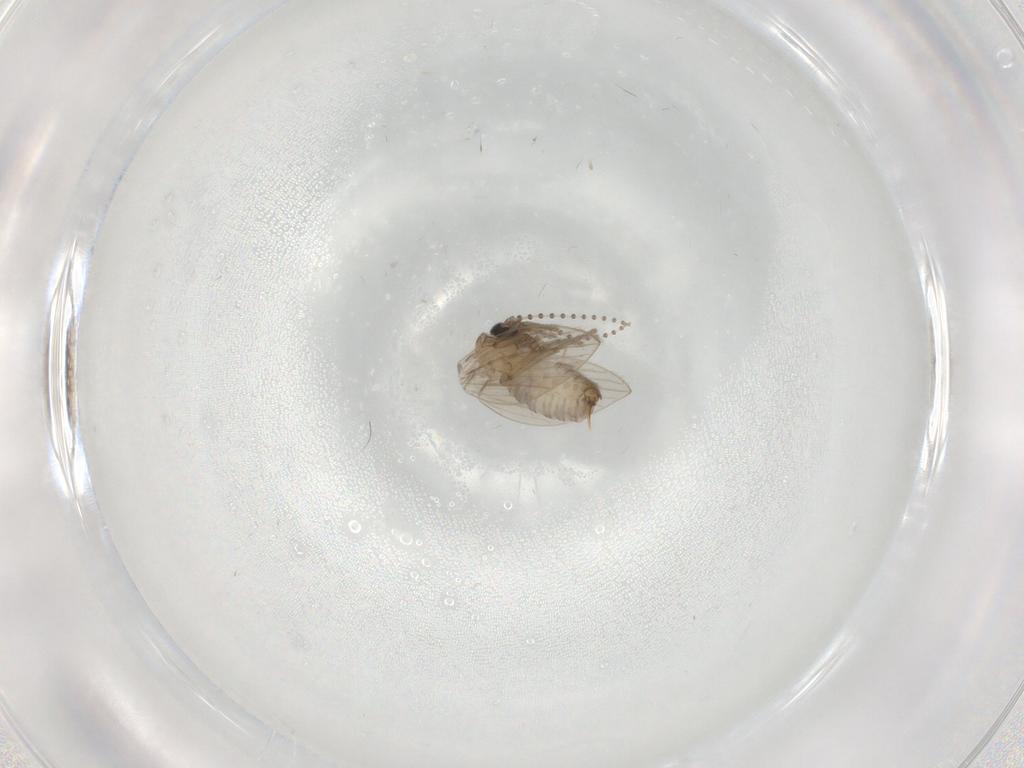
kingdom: Animalia
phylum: Arthropoda
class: Insecta
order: Diptera
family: Psychodidae
